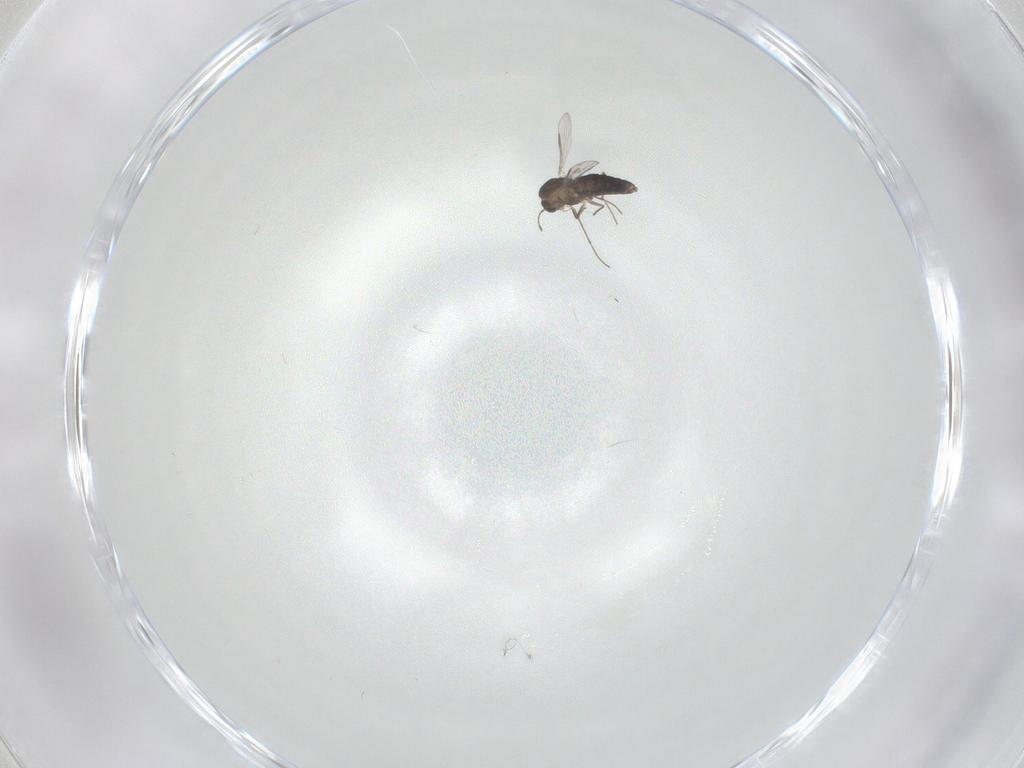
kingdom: Animalia
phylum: Arthropoda
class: Insecta
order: Diptera
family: Chironomidae
